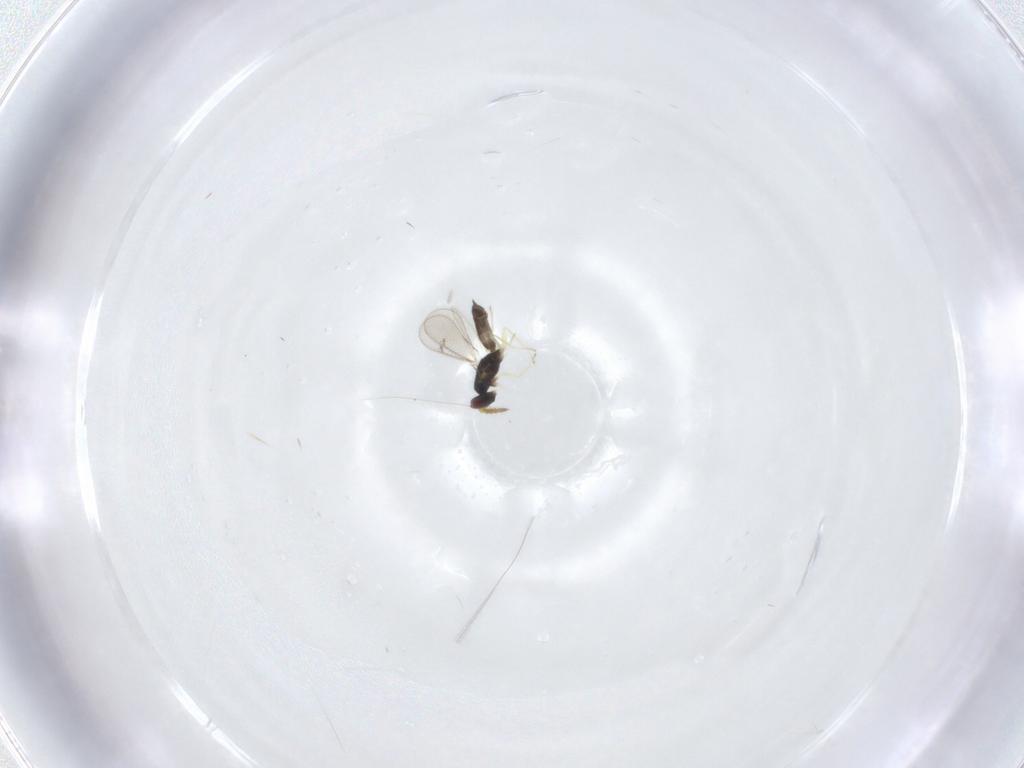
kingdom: Animalia
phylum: Arthropoda
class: Insecta
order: Hymenoptera
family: Eulophidae
